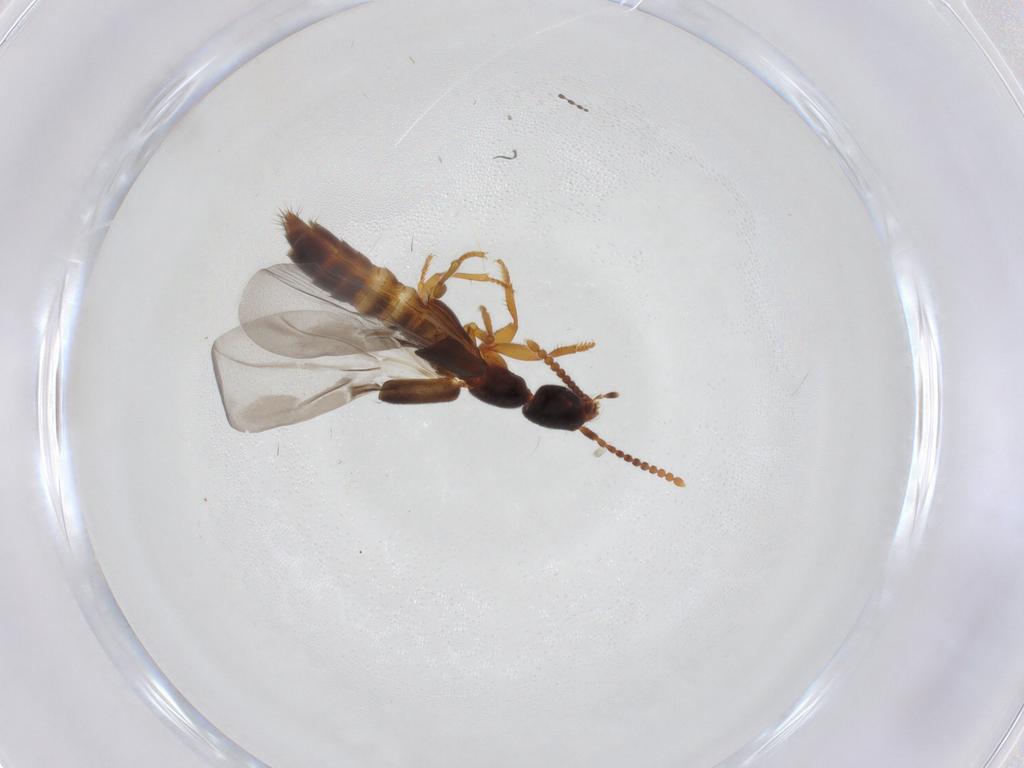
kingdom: Animalia
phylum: Arthropoda
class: Insecta
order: Coleoptera
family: Staphylinidae
